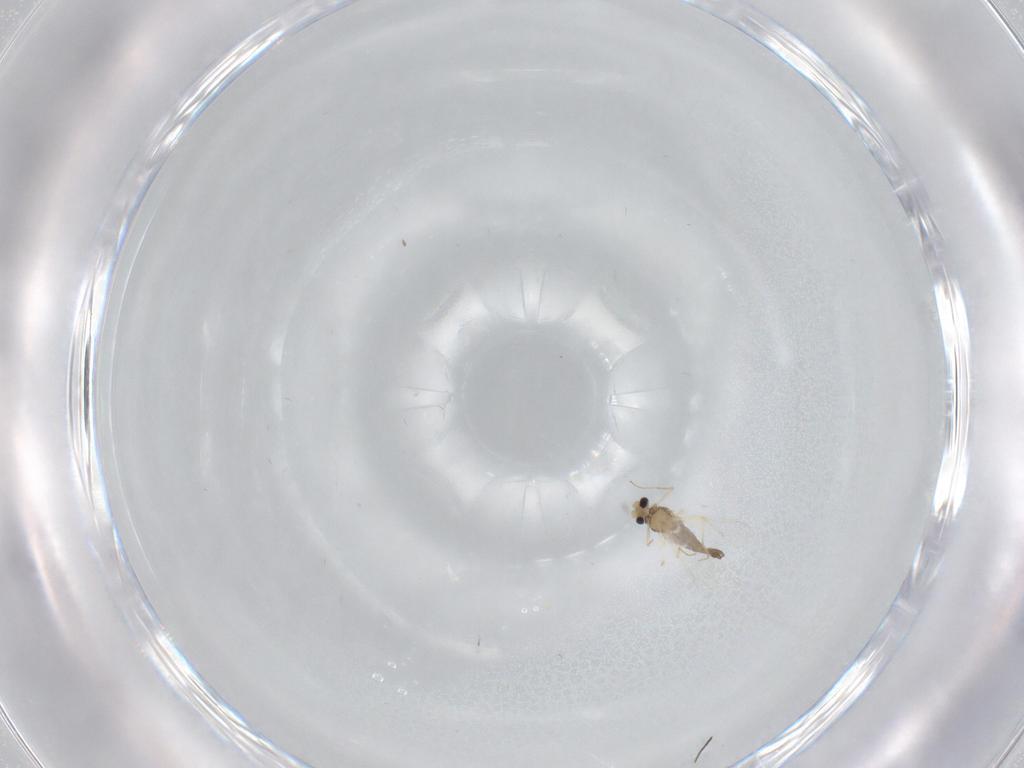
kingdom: Animalia
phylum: Arthropoda
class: Insecta
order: Diptera
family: Chironomidae
